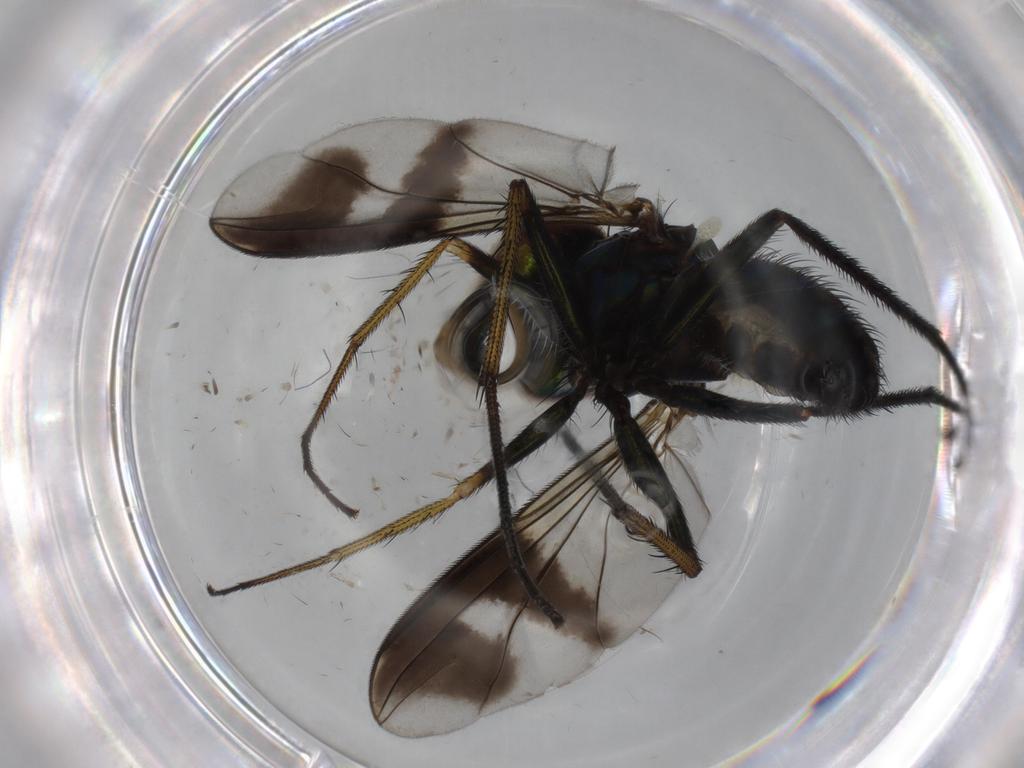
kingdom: Animalia
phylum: Arthropoda
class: Insecta
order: Diptera
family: Dolichopodidae
